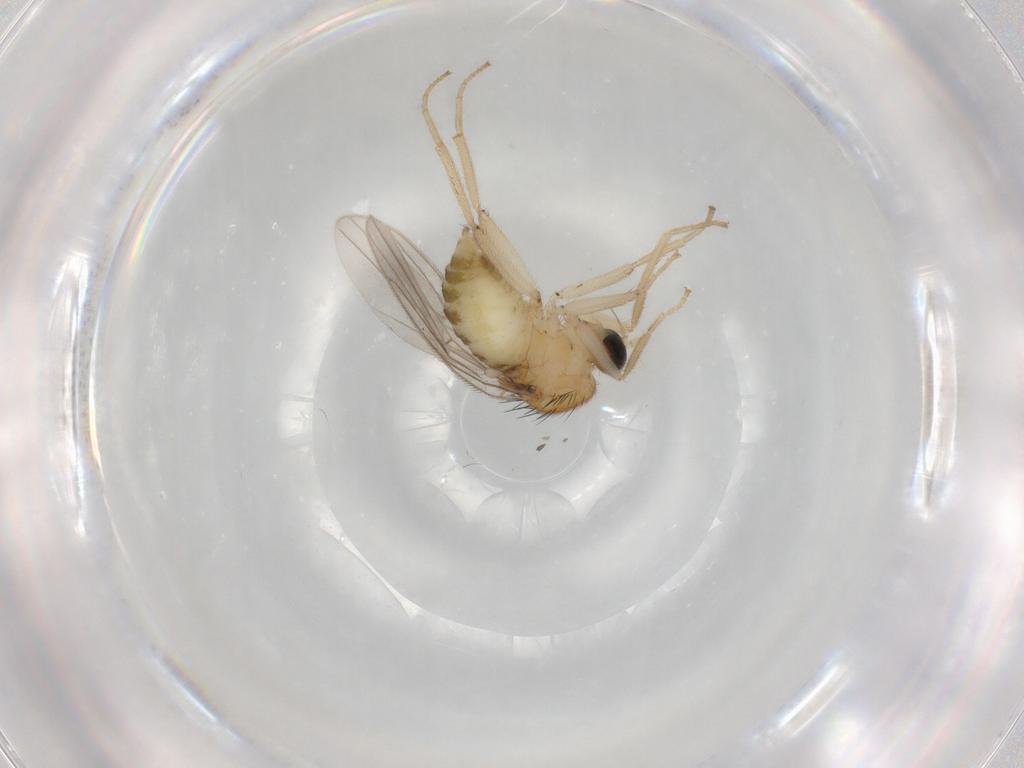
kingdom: Animalia
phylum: Arthropoda
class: Insecta
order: Diptera
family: Hybotidae
